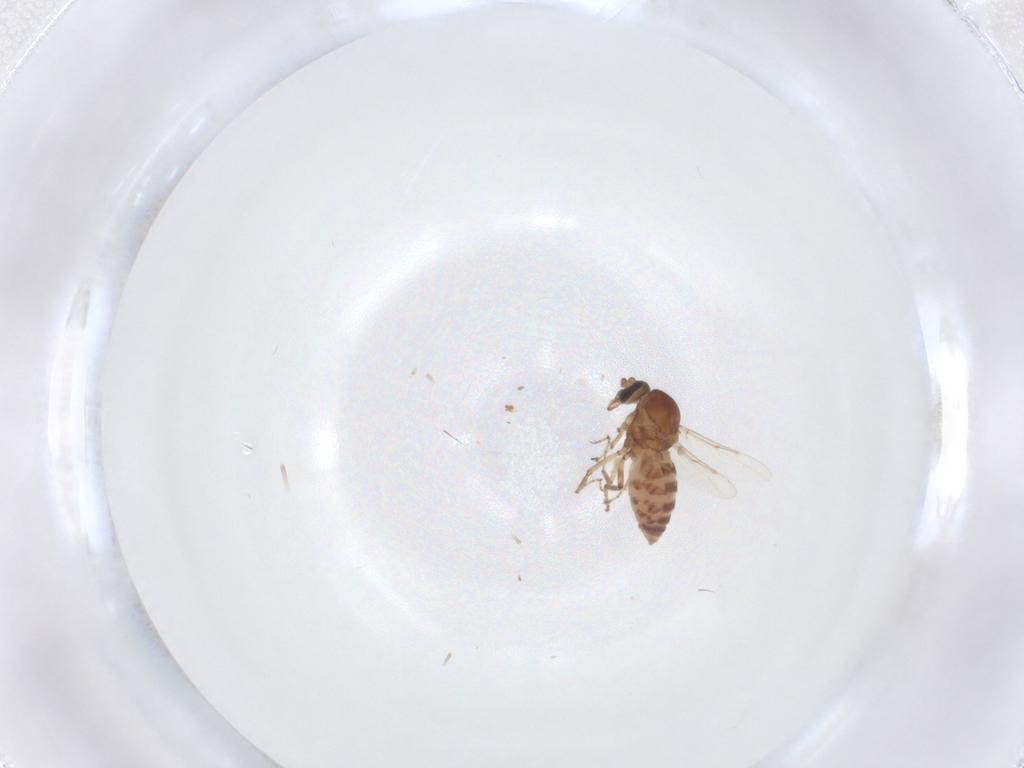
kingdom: Animalia
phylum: Arthropoda
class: Insecta
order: Diptera
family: Ceratopogonidae
